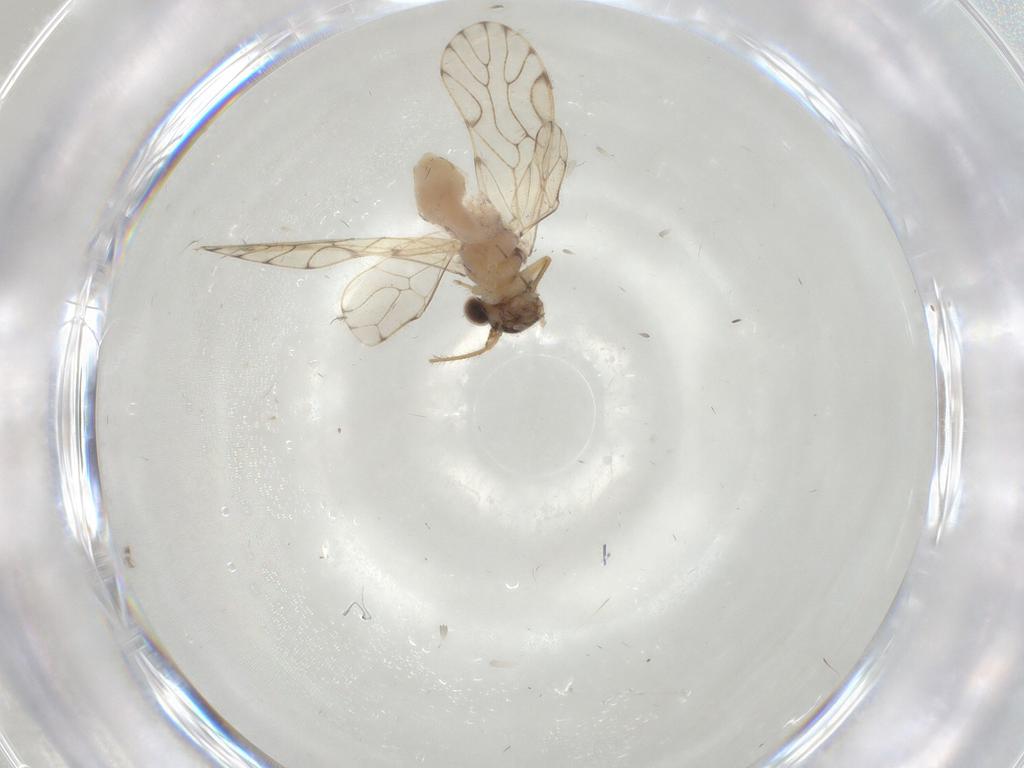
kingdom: Animalia
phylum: Arthropoda
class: Insecta
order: Psocodea
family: Epipsocidae
